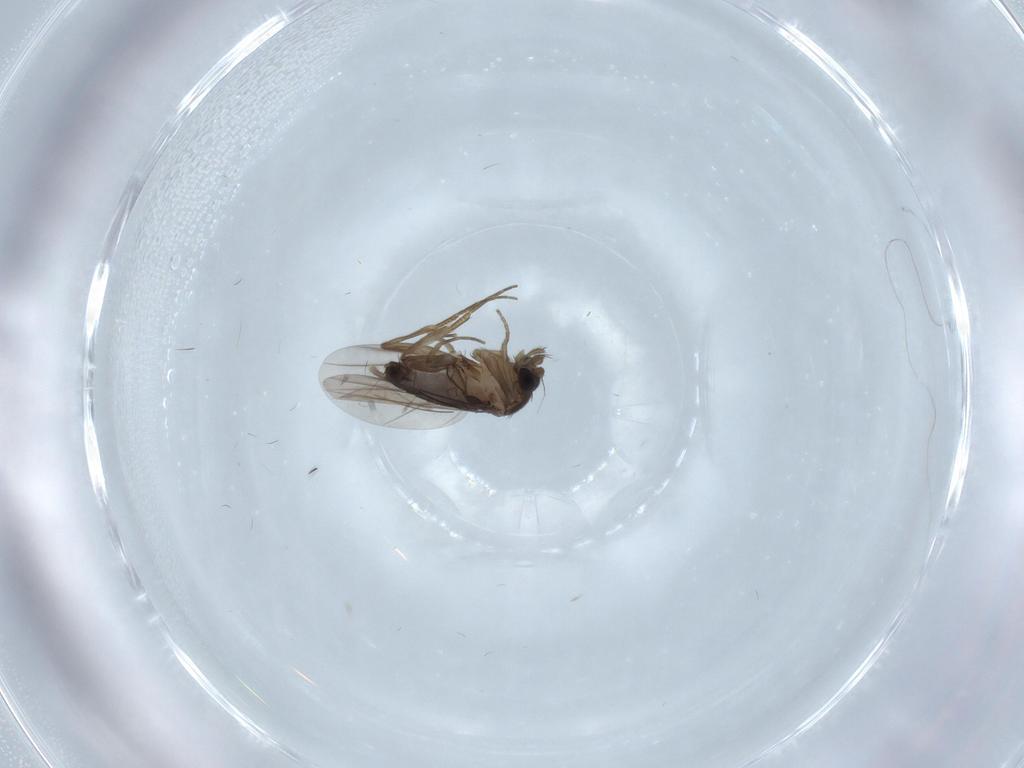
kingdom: Animalia
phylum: Arthropoda
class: Insecta
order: Diptera
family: Phoridae
